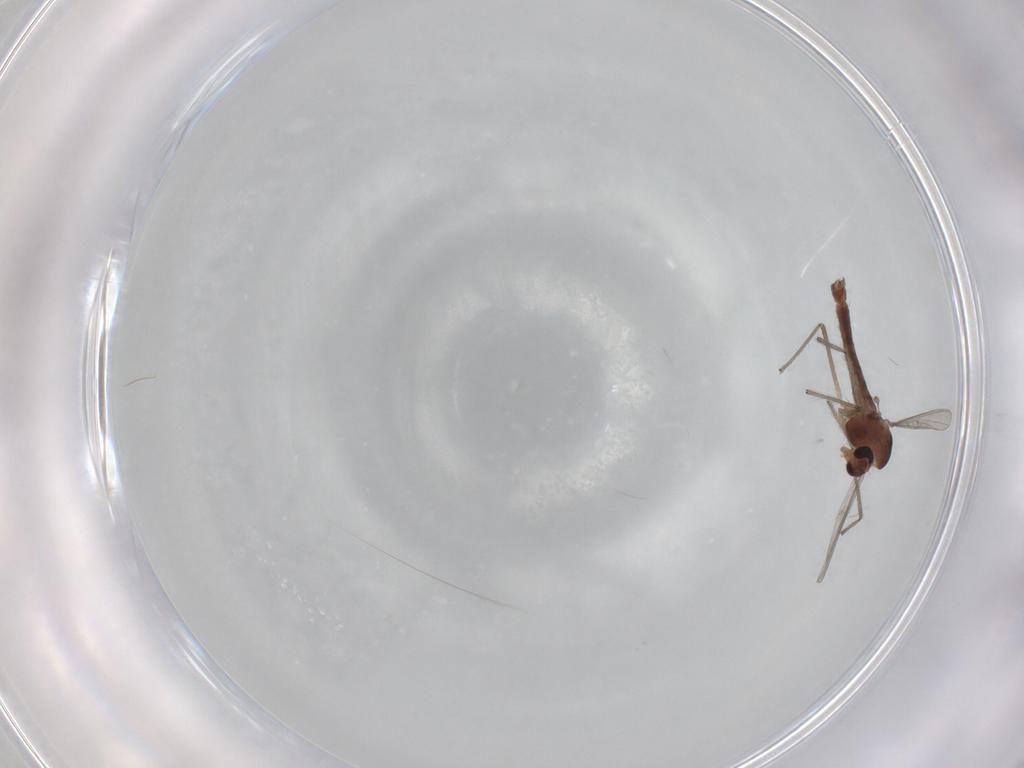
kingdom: Animalia
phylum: Arthropoda
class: Insecta
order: Diptera
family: Chironomidae
